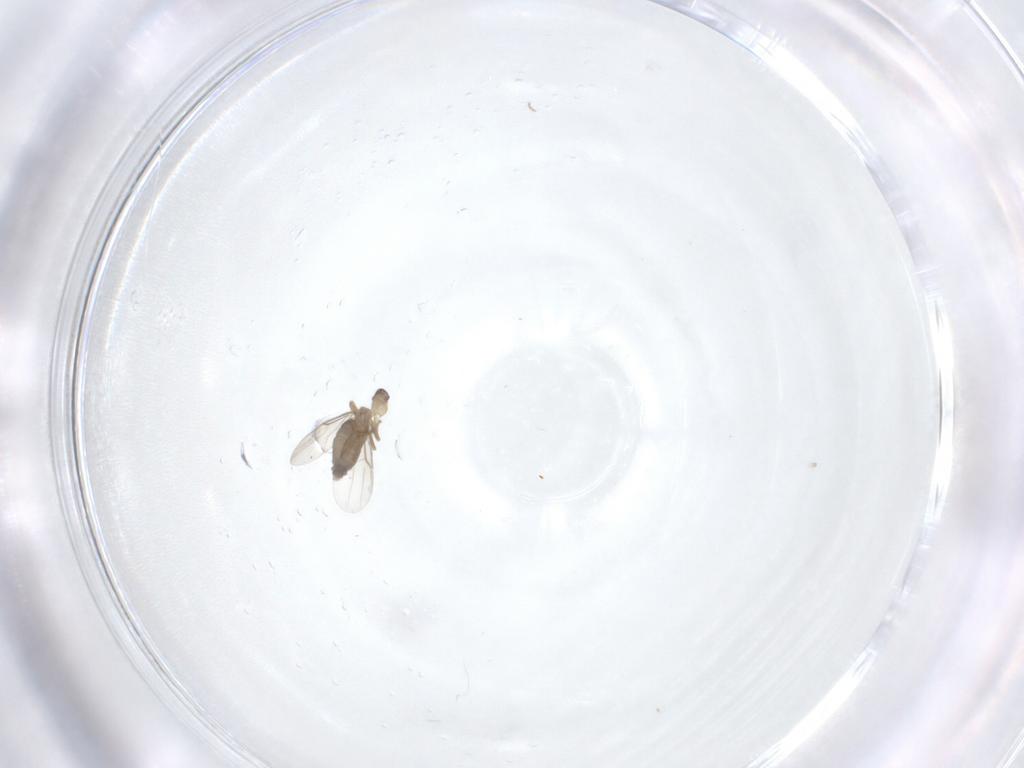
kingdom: Animalia
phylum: Arthropoda
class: Insecta
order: Diptera
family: Phoridae
